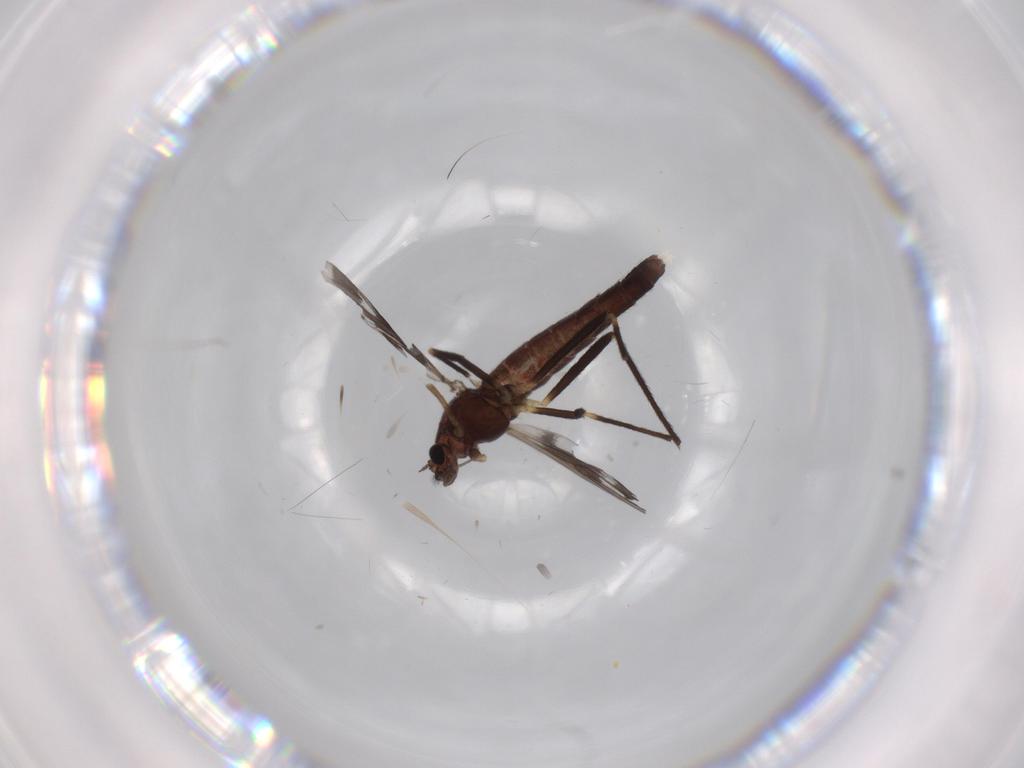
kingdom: Animalia
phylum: Arthropoda
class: Insecta
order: Diptera
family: Chironomidae
